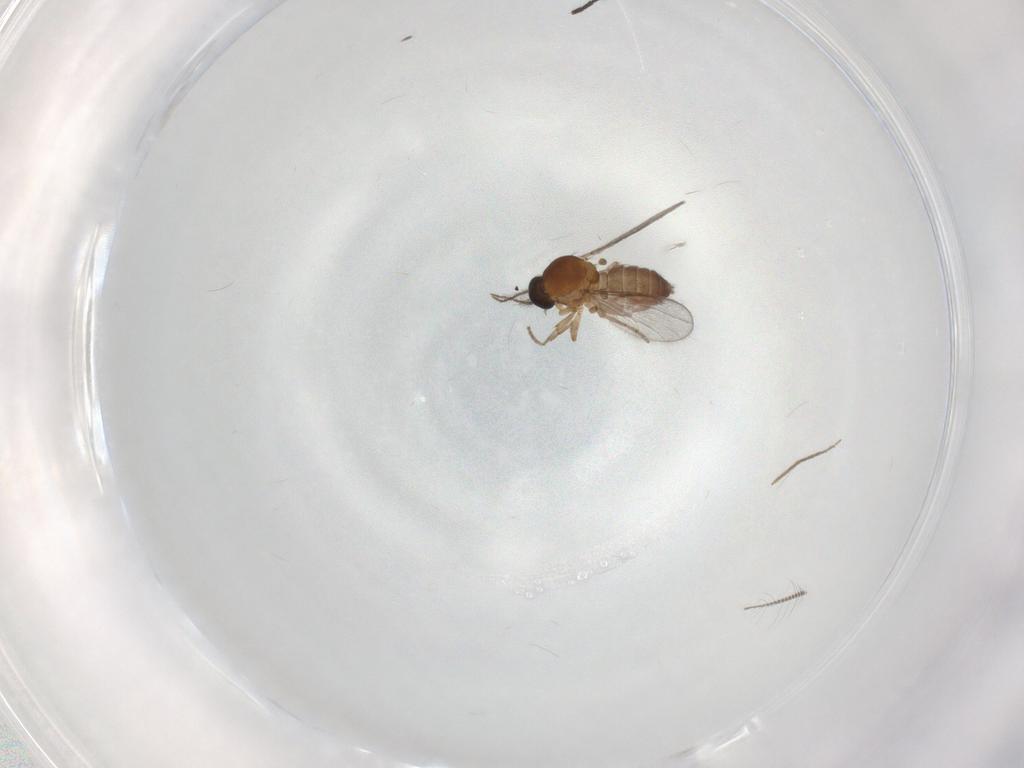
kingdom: Animalia
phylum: Arthropoda
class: Insecta
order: Diptera
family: Ceratopogonidae
